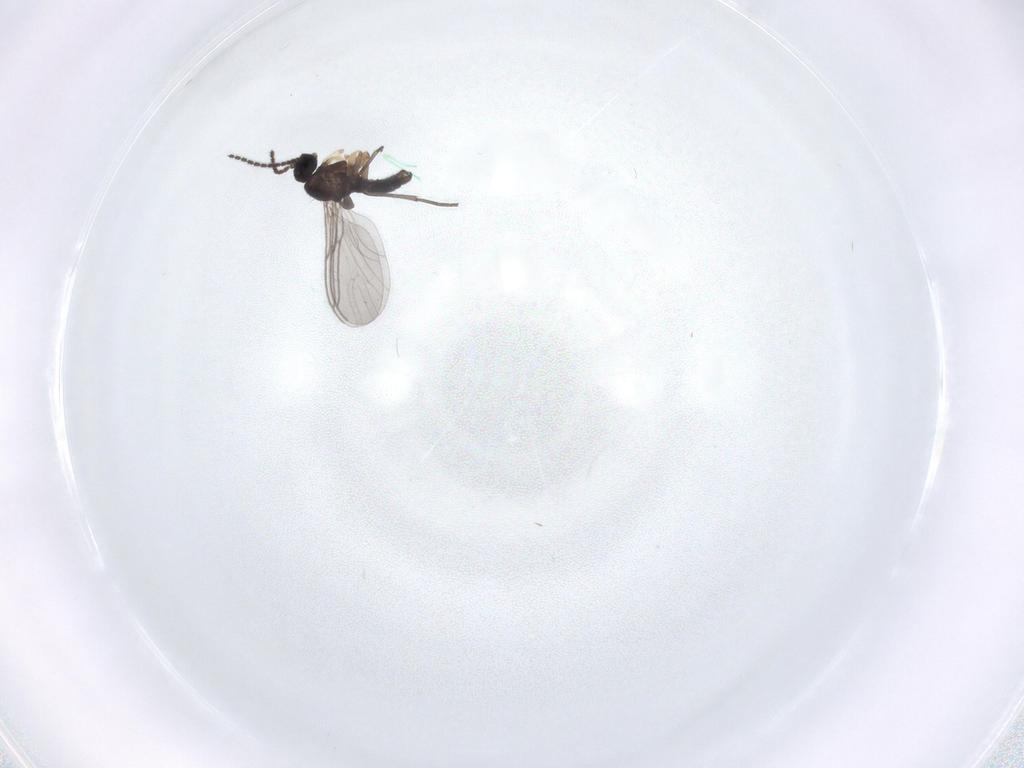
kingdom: Animalia
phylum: Arthropoda
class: Insecta
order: Diptera
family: Sciaridae
